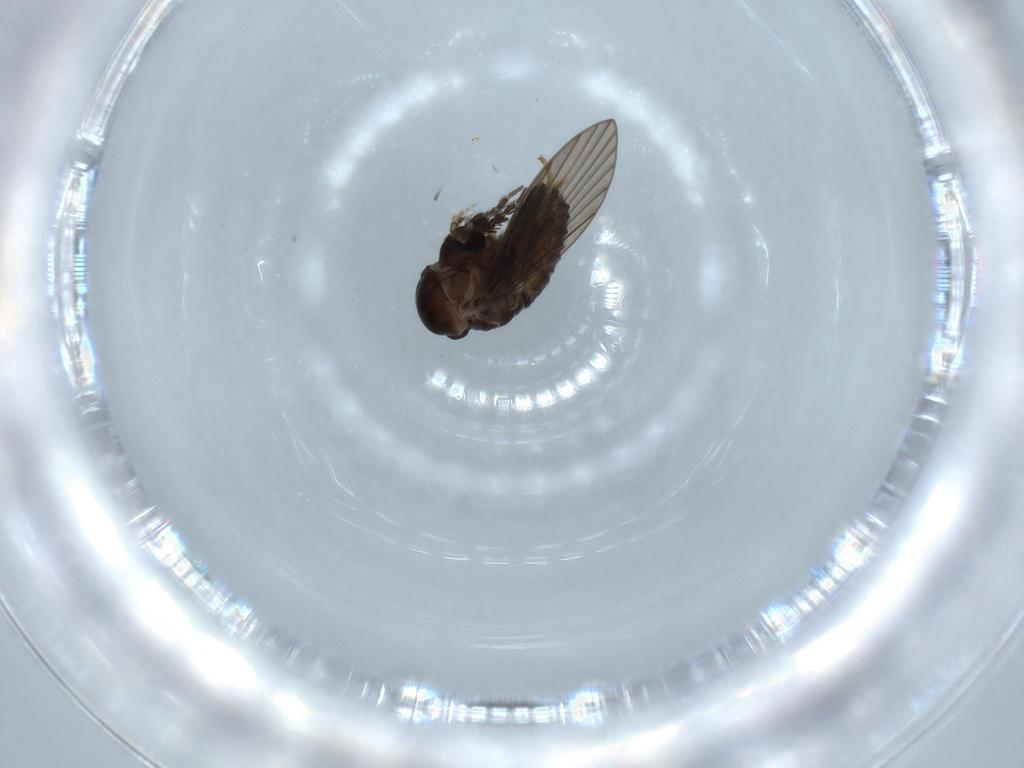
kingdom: Animalia
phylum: Arthropoda
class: Insecta
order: Diptera
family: Psychodidae
